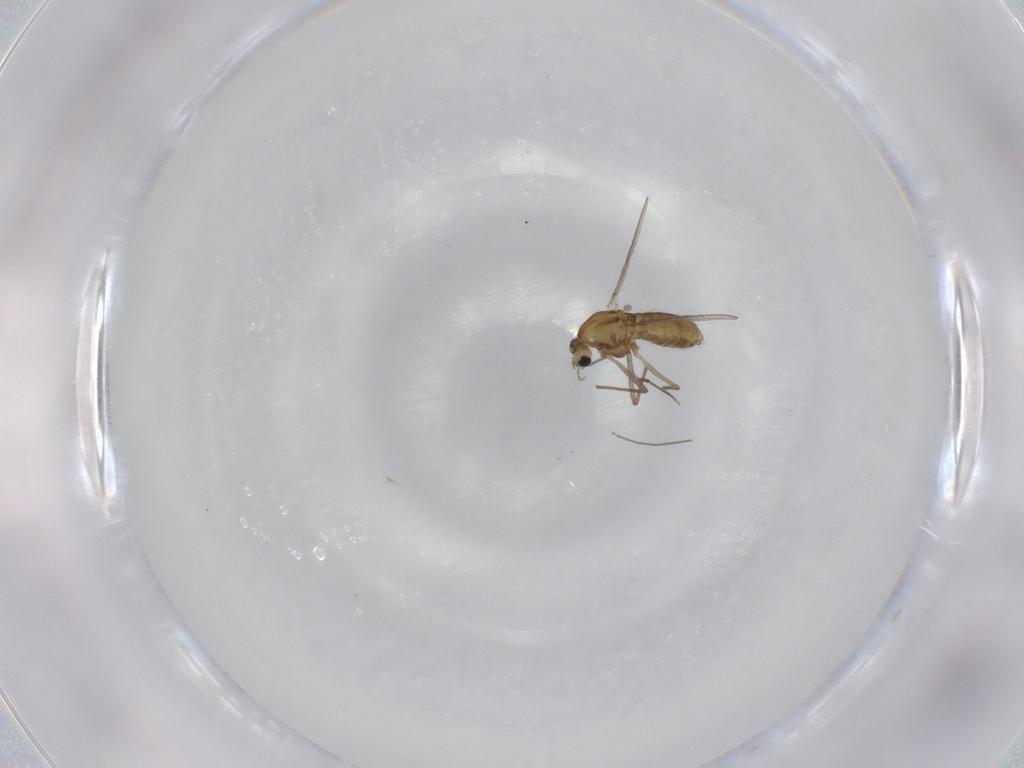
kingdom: Animalia
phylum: Arthropoda
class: Insecta
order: Diptera
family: Chironomidae
